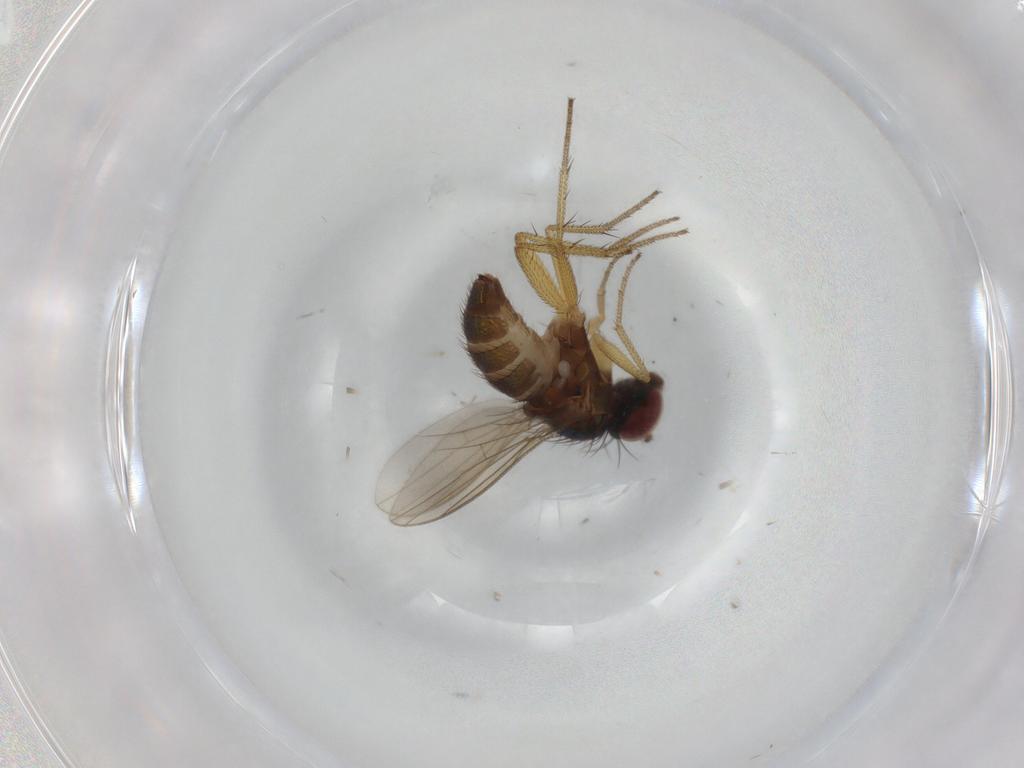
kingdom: Animalia
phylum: Arthropoda
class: Insecta
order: Diptera
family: Dolichopodidae
